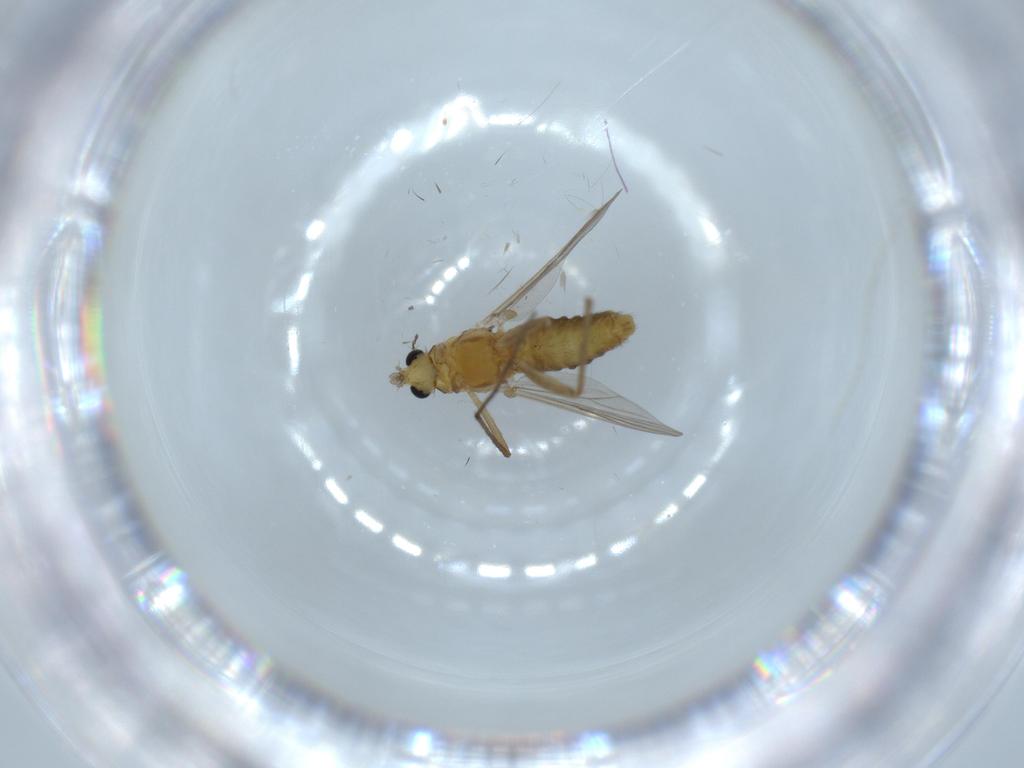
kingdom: Animalia
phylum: Arthropoda
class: Insecta
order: Diptera
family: Chironomidae
